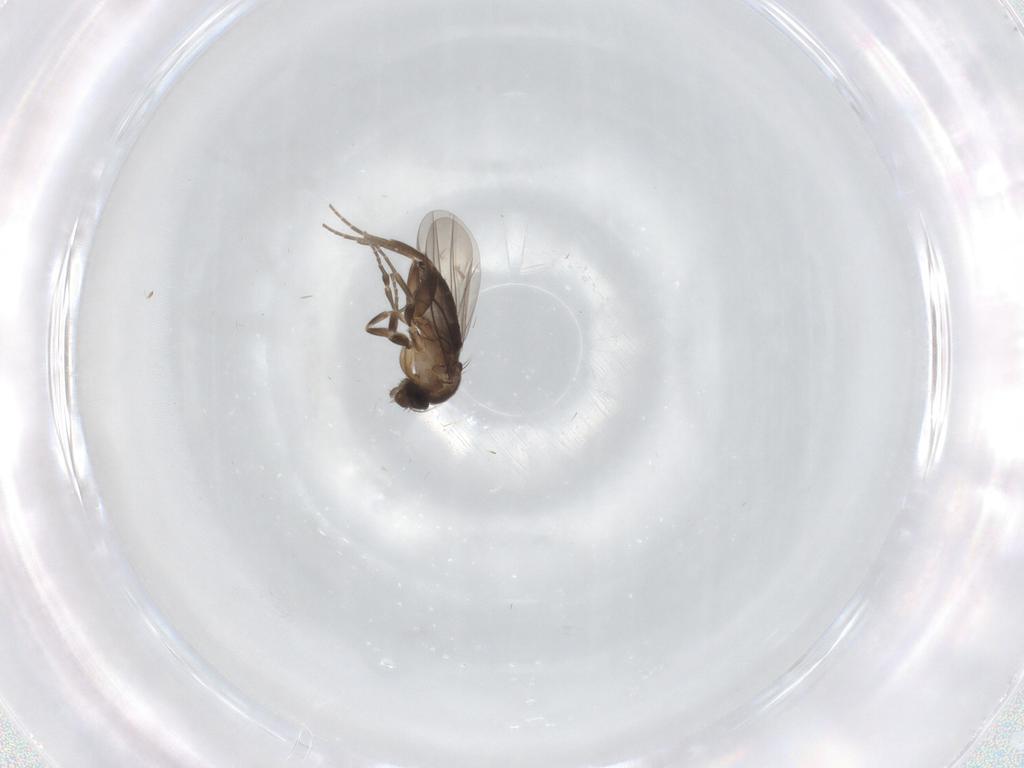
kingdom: Animalia
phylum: Arthropoda
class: Insecta
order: Diptera
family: Phoridae
